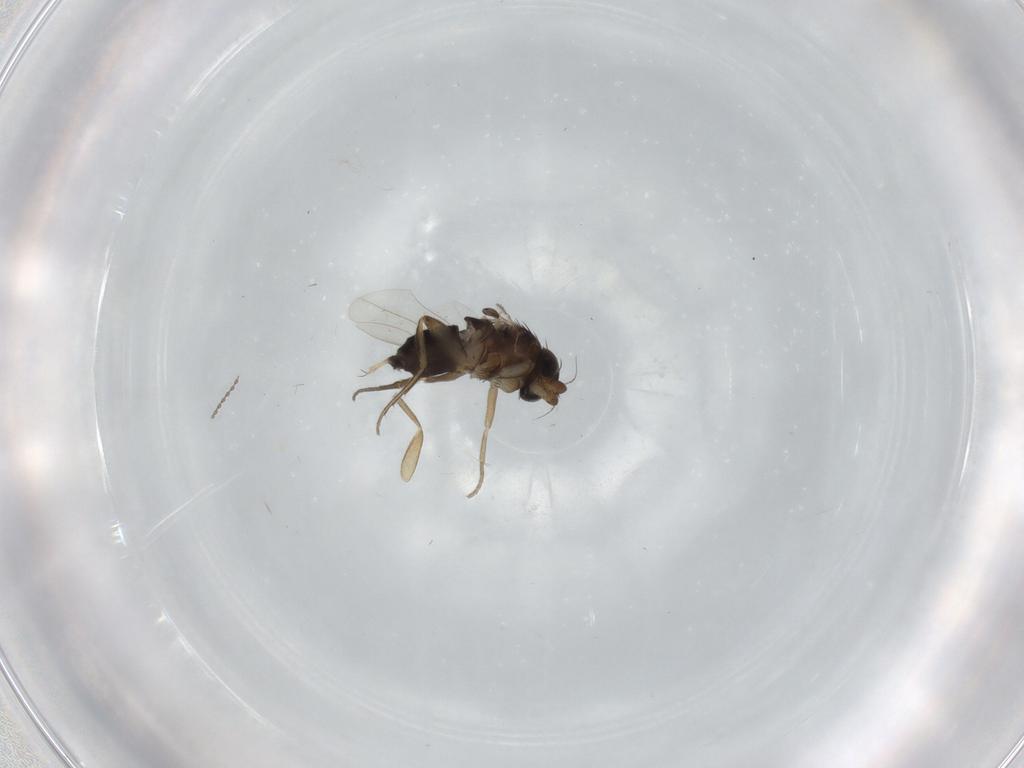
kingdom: Animalia
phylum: Arthropoda
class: Insecta
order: Diptera
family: Phoridae
